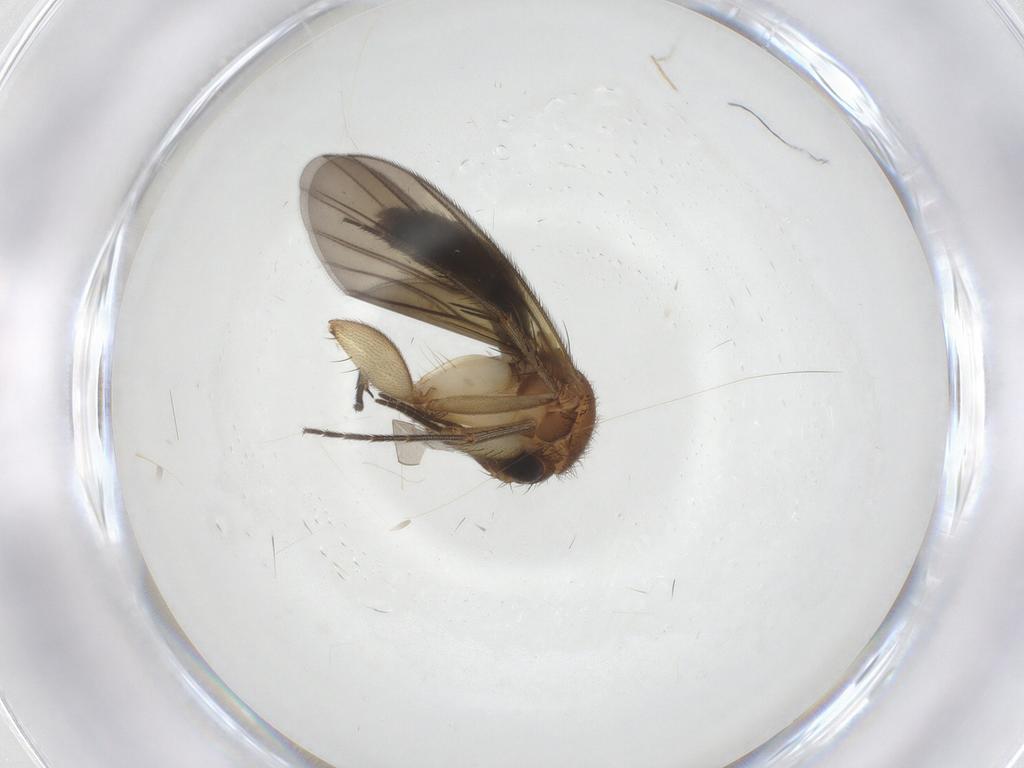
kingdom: Animalia
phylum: Arthropoda
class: Insecta
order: Diptera
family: Mycetophilidae
